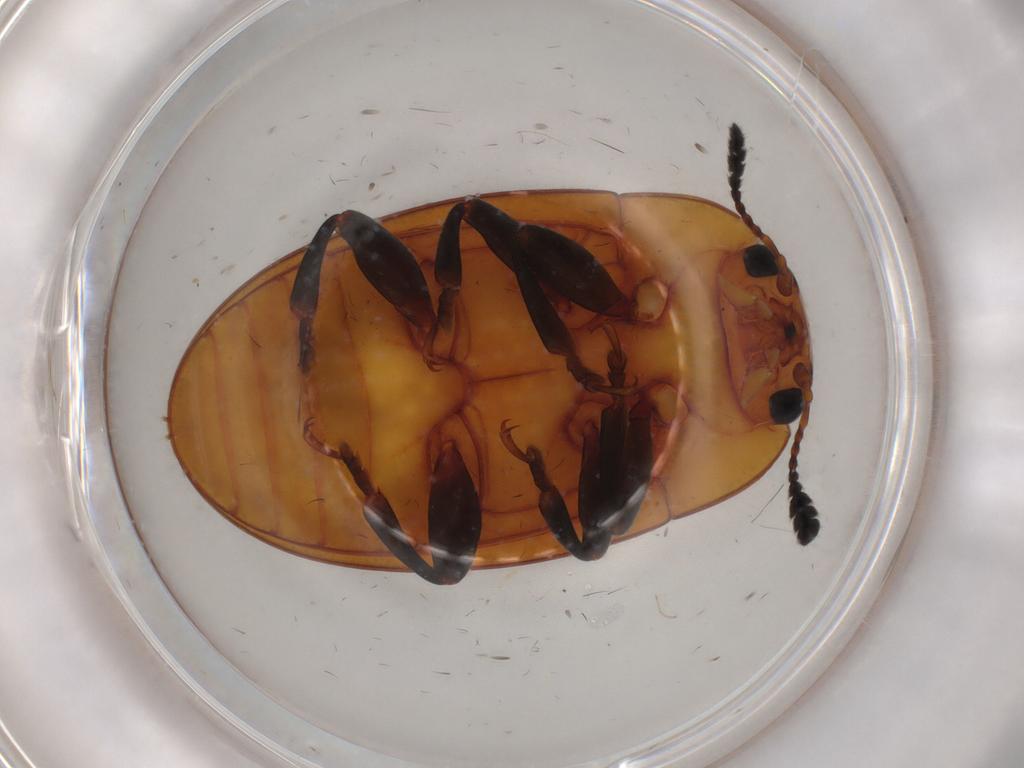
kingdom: Animalia
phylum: Arthropoda
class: Insecta
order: Coleoptera
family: Erotylidae
